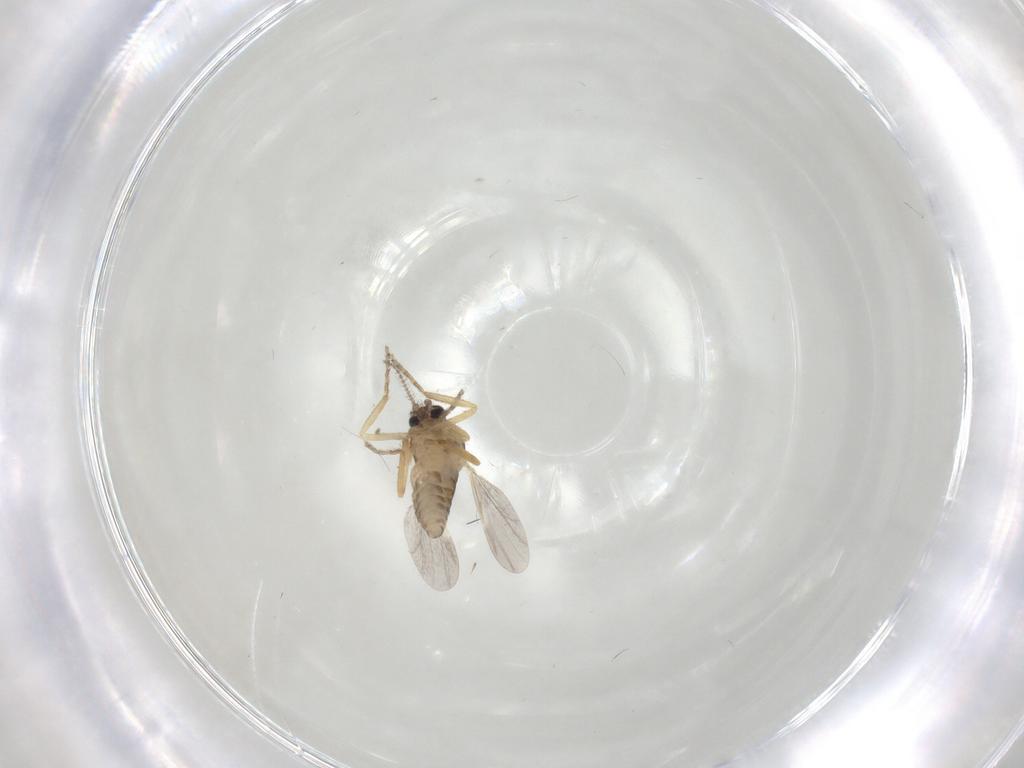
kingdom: Animalia
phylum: Arthropoda
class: Insecta
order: Diptera
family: Ceratopogonidae
